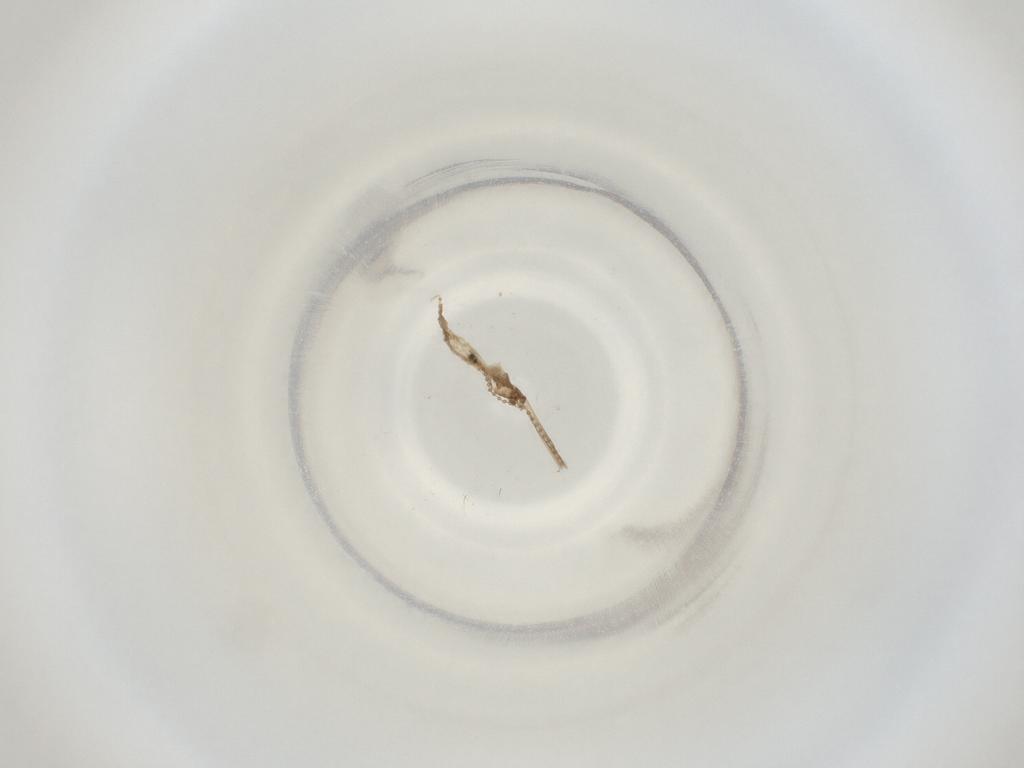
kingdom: Animalia
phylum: Arthropoda
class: Insecta
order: Diptera
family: Cecidomyiidae
